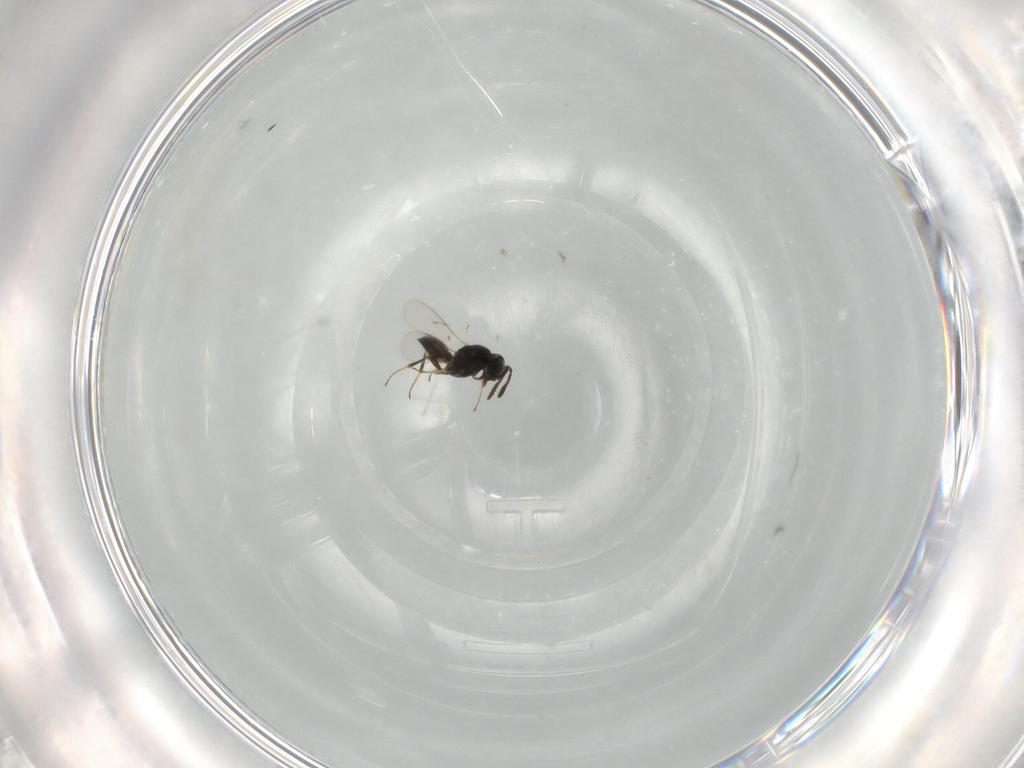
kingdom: Animalia
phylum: Arthropoda
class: Insecta
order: Hymenoptera
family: Scelionidae
